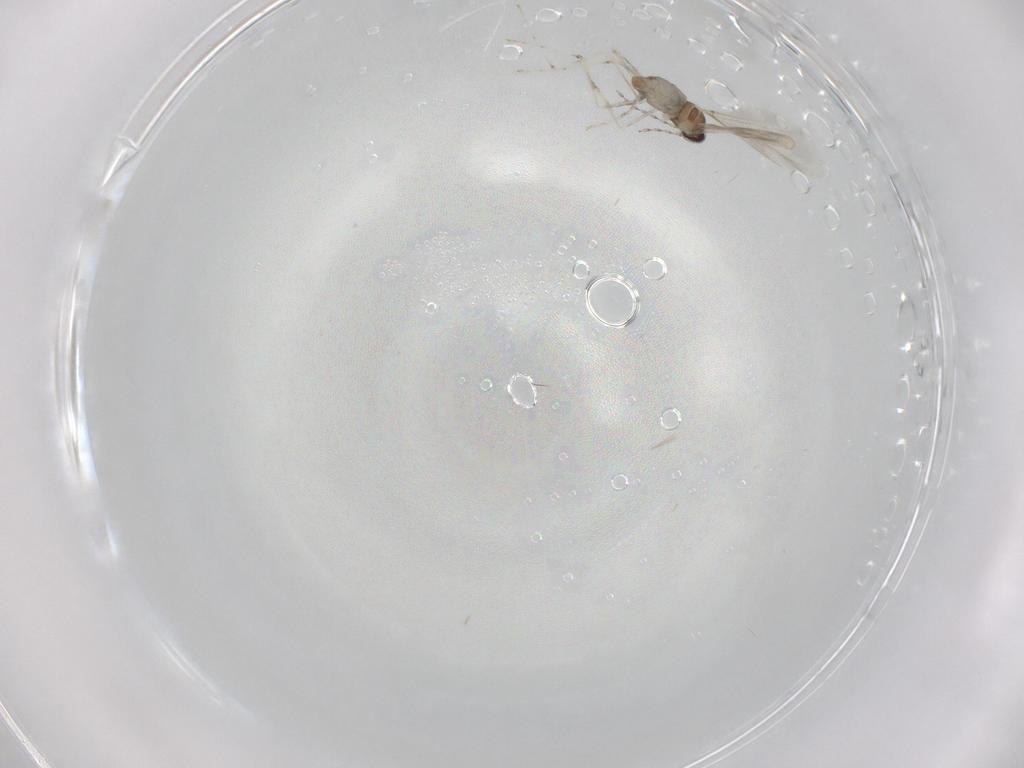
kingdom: Animalia
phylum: Arthropoda
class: Insecta
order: Diptera
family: Cecidomyiidae
